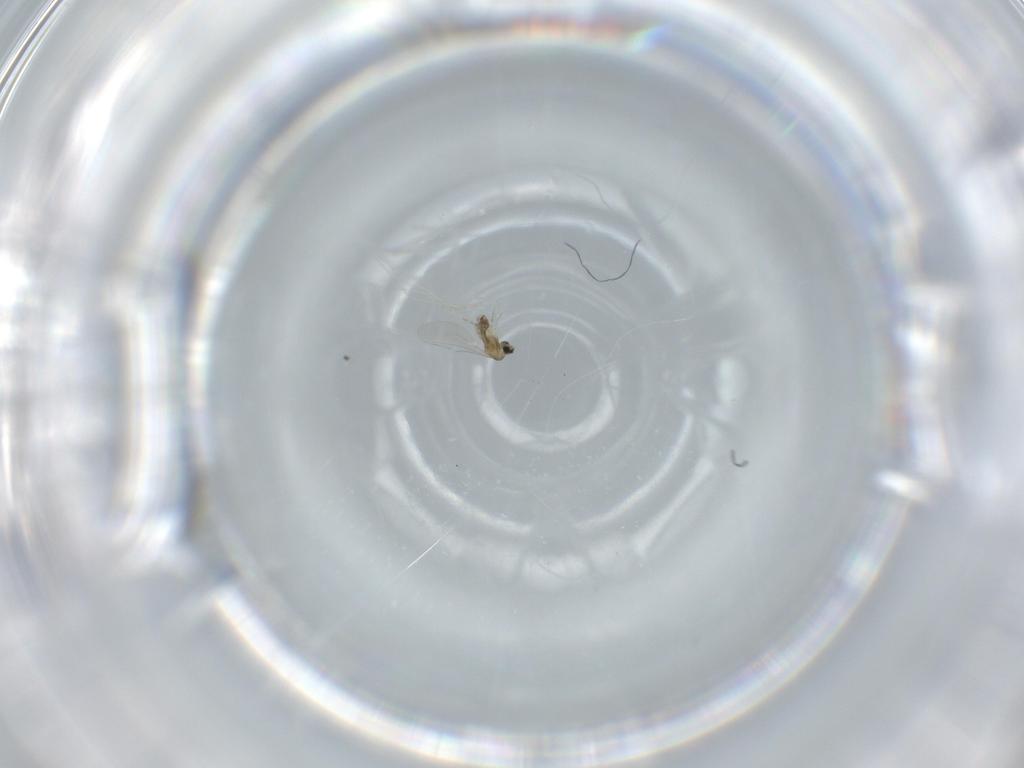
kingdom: Animalia
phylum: Arthropoda
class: Insecta
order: Diptera
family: Cecidomyiidae
